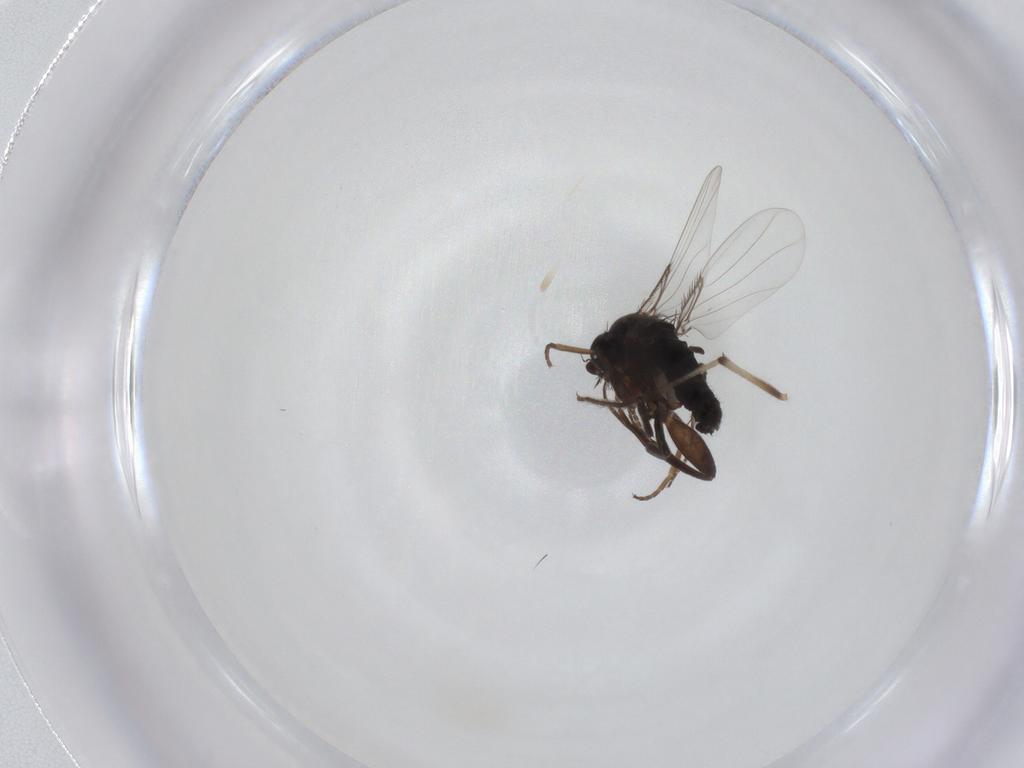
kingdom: Animalia
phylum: Arthropoda
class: Insecta
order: Diptera
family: Sciaridae
